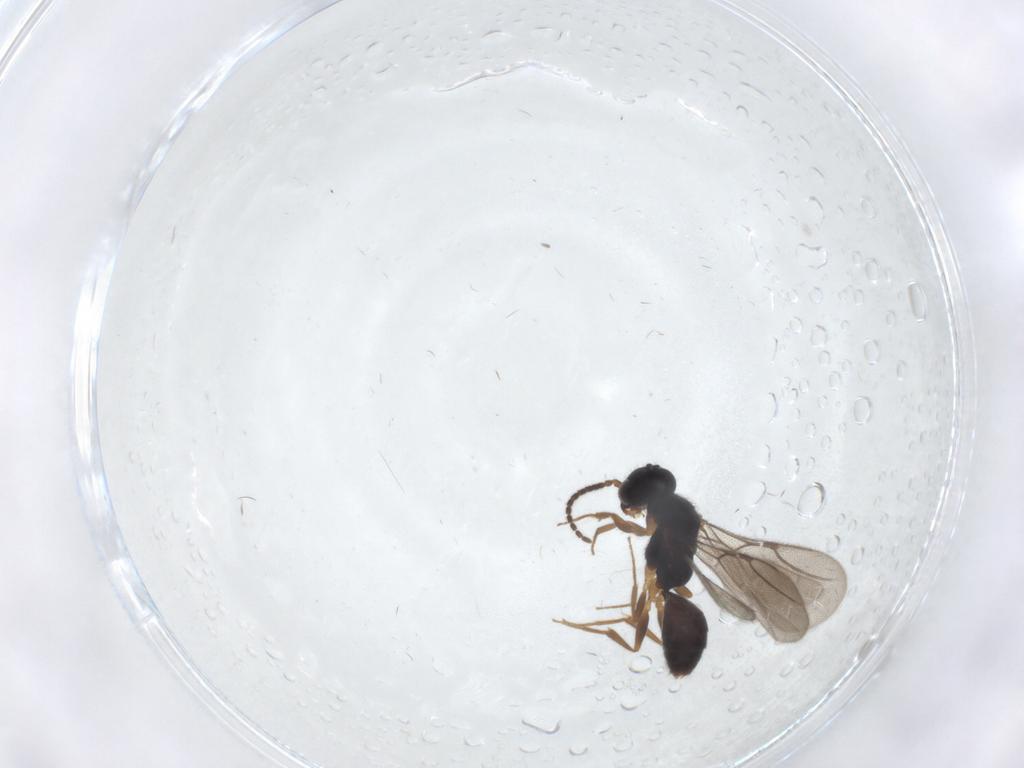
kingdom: Animalia
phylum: Arthropoda
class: Insecta
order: Hymenoptera
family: Bethylidae
